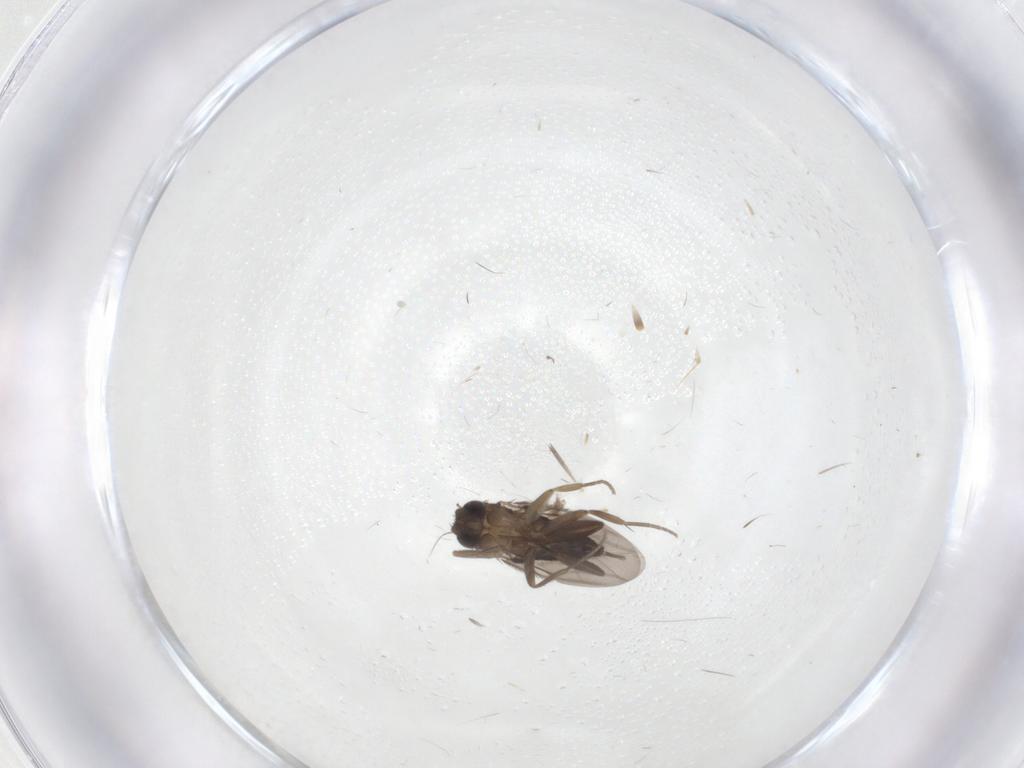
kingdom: Animalia
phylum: Arthropoda
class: Insecta
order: Diptera
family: Phoridae
